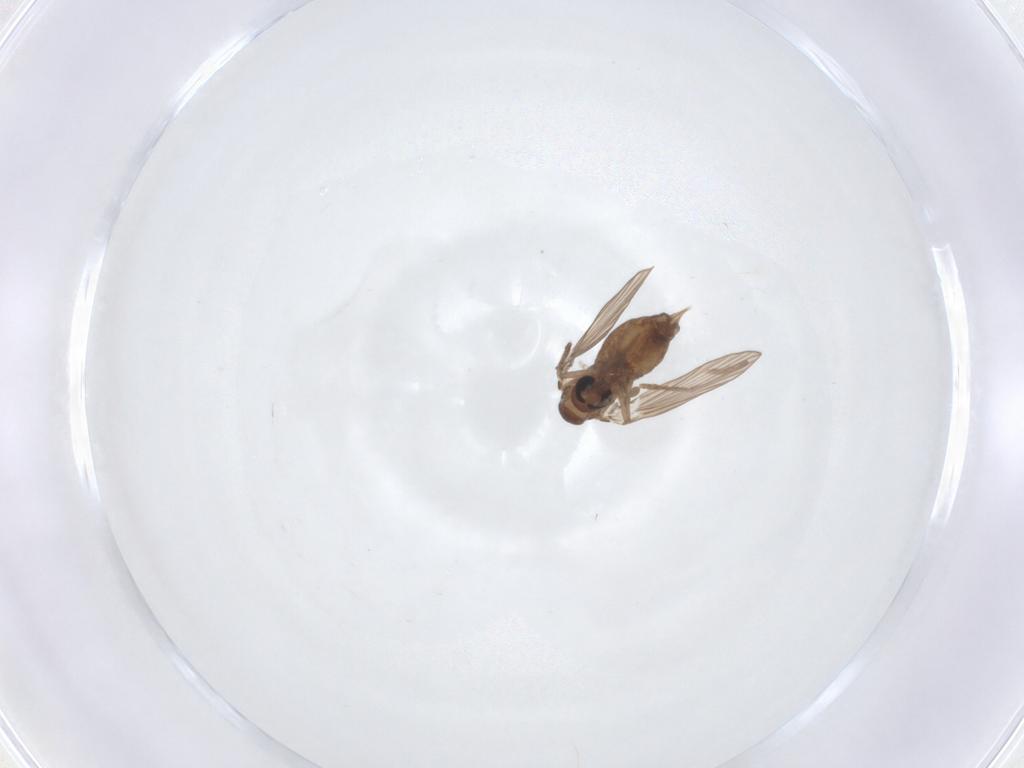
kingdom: Animalia
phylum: Arthropoda
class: Insecta
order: Diptera
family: Psychodidae
